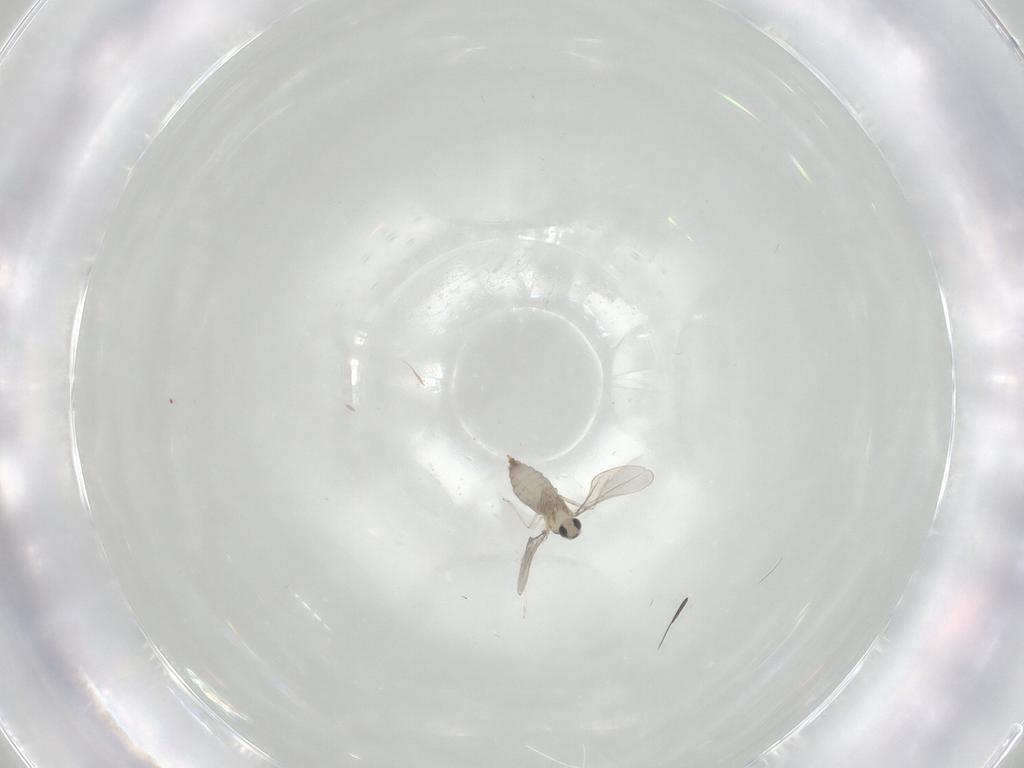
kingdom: Animalia
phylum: Arthropoda
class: Insecta
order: Diptera
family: Cecidomyiidae
